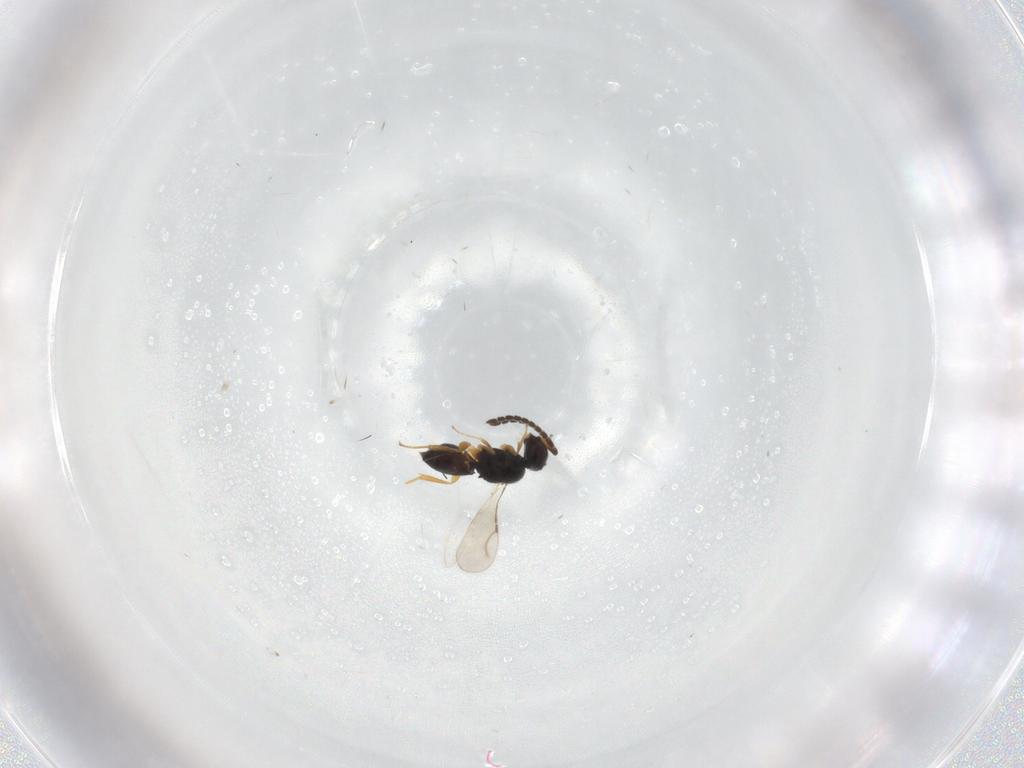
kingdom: Animalia
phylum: Arthropoda
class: Insecta
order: Hymenoptera
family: Ceraphronidae
